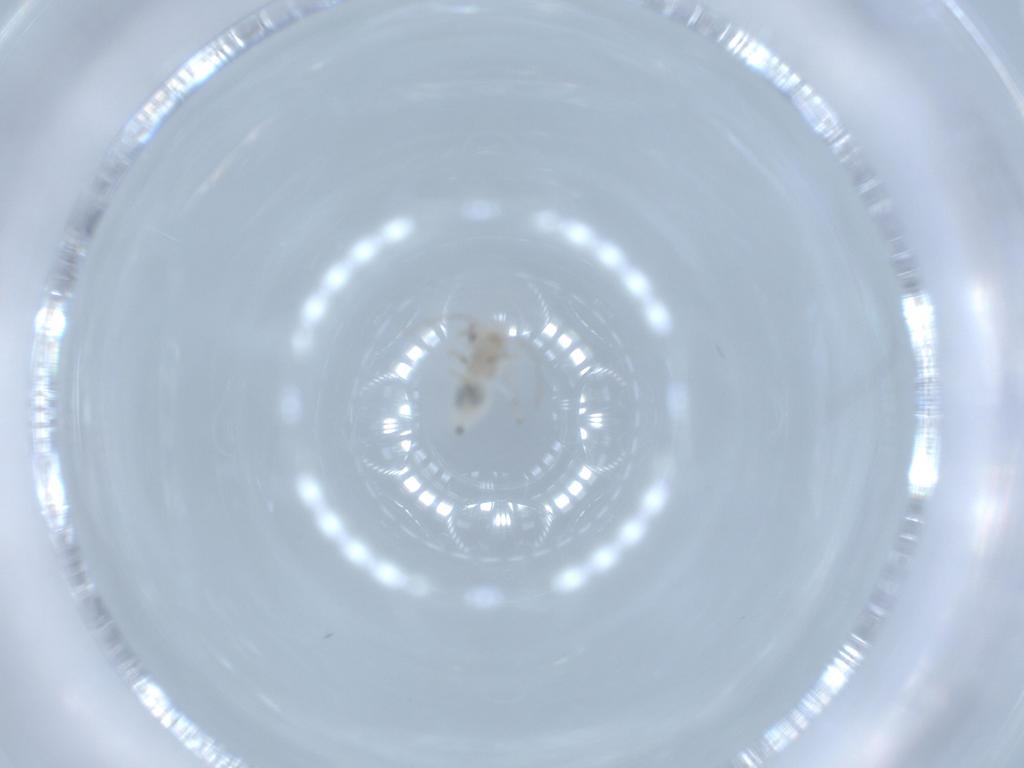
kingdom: Animalia
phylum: Arthropoda
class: Insecta
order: Psocodea
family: Amphipsocidae
